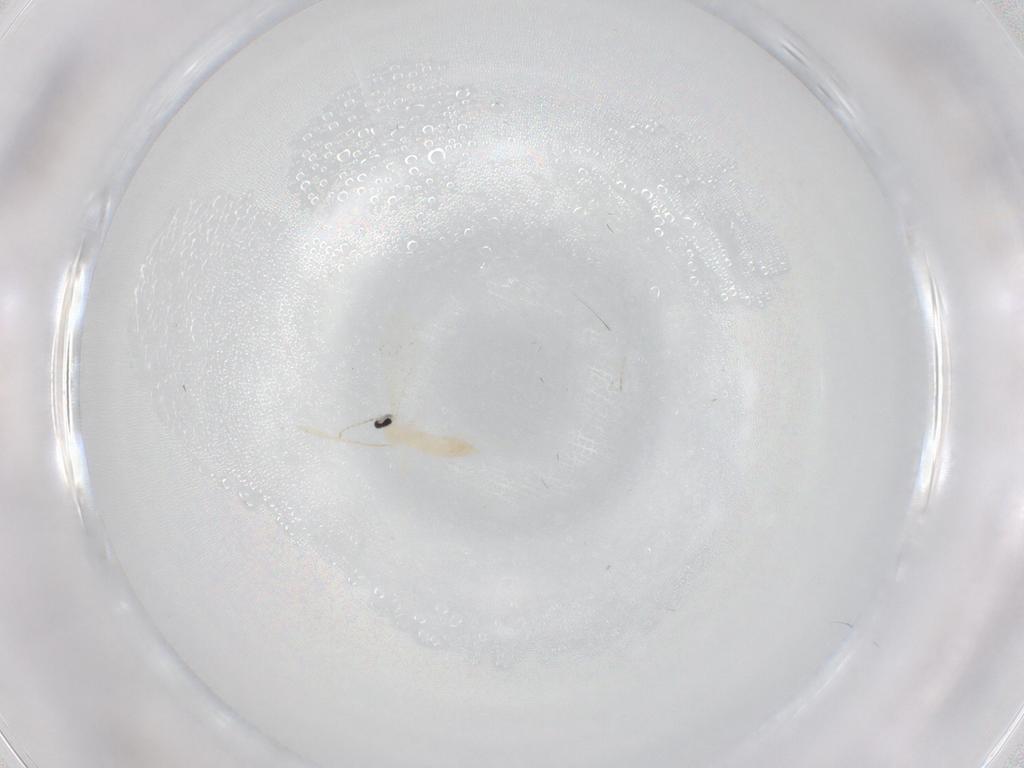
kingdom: Animalia
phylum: Arthropoda
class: Insecta
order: Diptera
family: Cecidomyiidae
